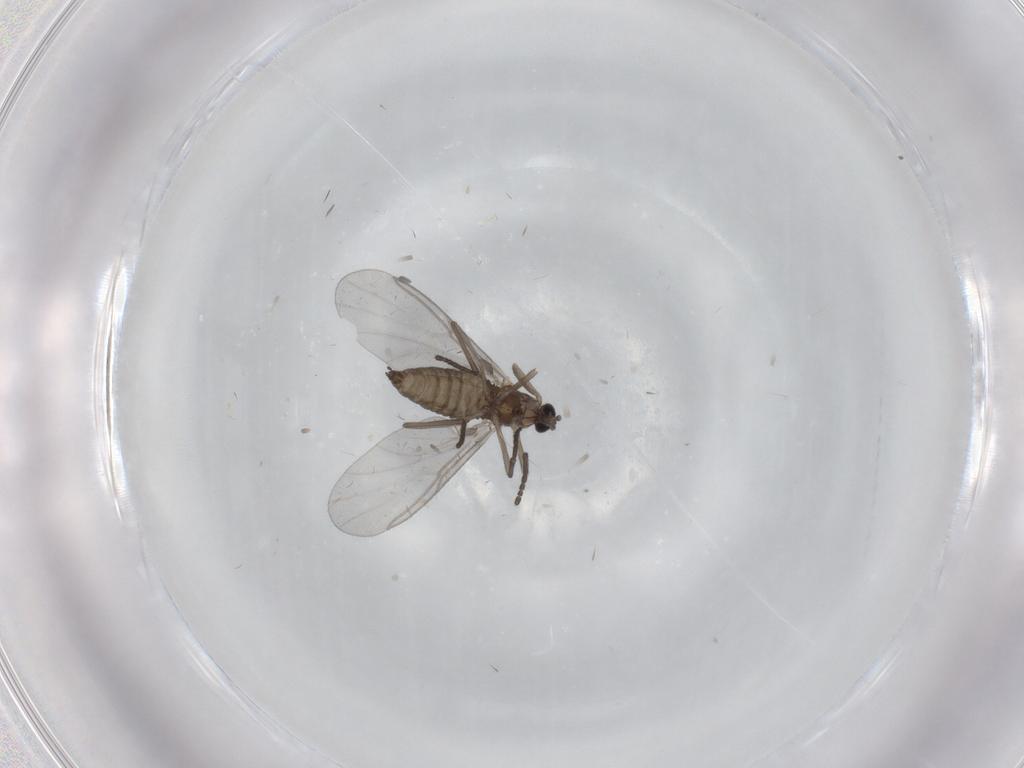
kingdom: Animalia
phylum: Arthropoda
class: Insecta
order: Diptera
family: Cecidomyiidae
